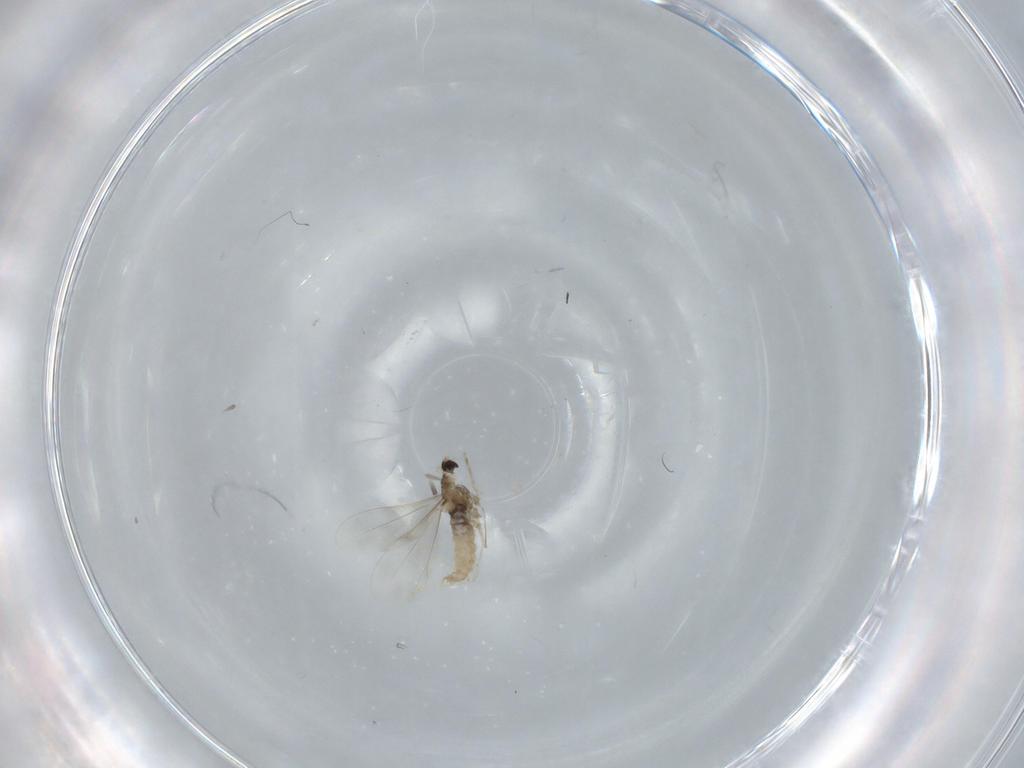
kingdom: Animalia
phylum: Arthropoda
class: Insecta
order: Diptera
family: Cecidomyiidae
